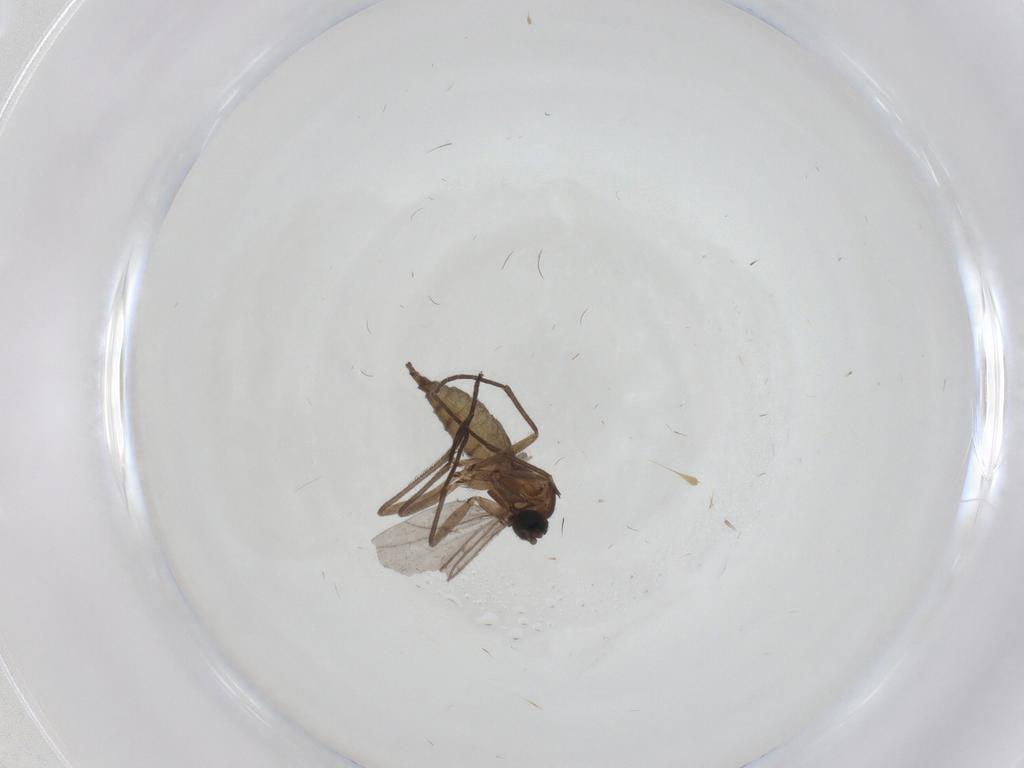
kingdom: Animalia
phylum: Arthropoda
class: Insecta
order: Diptera
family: Sciaridae
